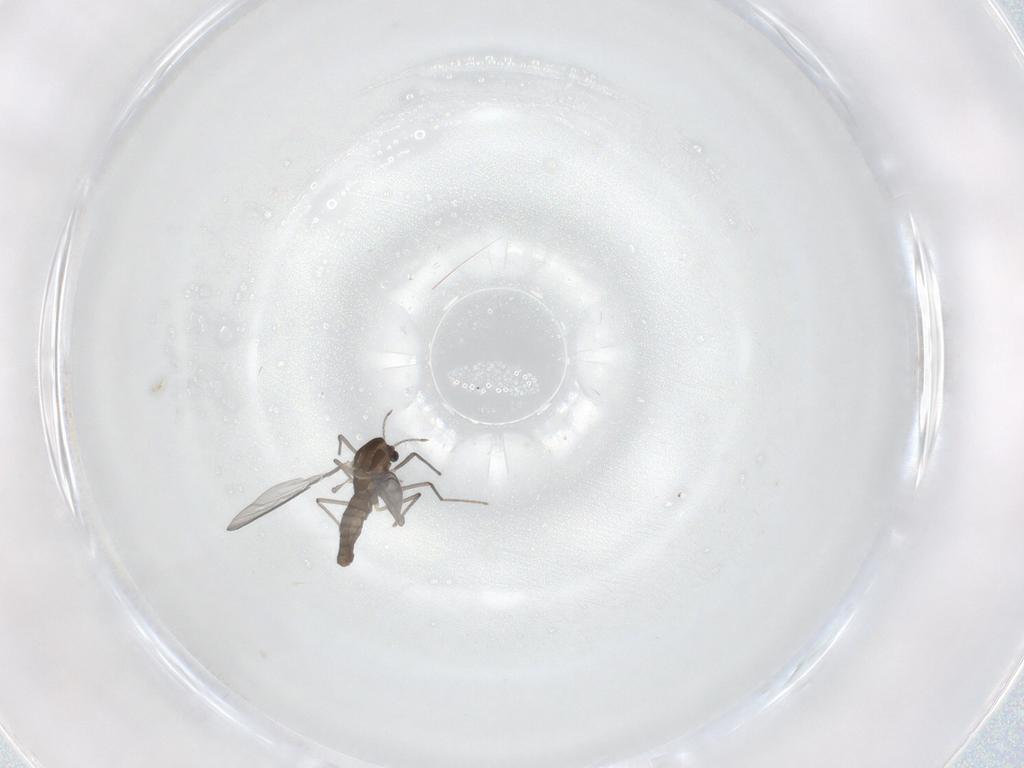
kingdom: Animalia
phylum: Arthropoda
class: Insecta
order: Diptera
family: Chironomidae
